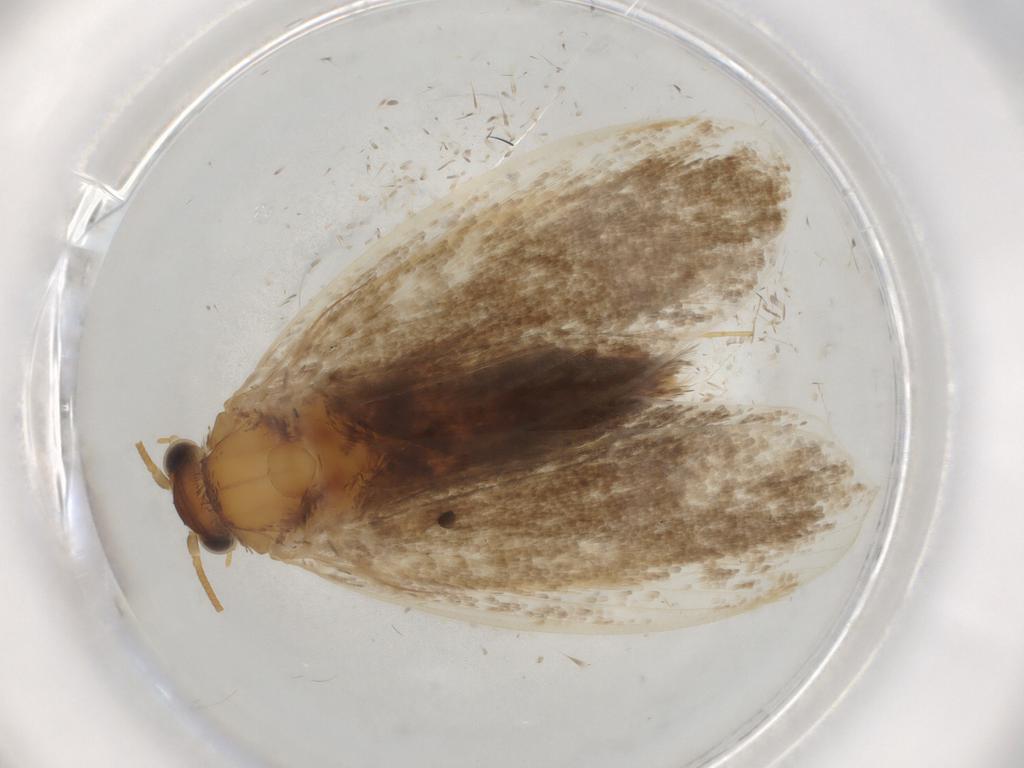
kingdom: Animalia
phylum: Arthropoda
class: Insecta
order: Lepidoptera
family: Nepticulidae
